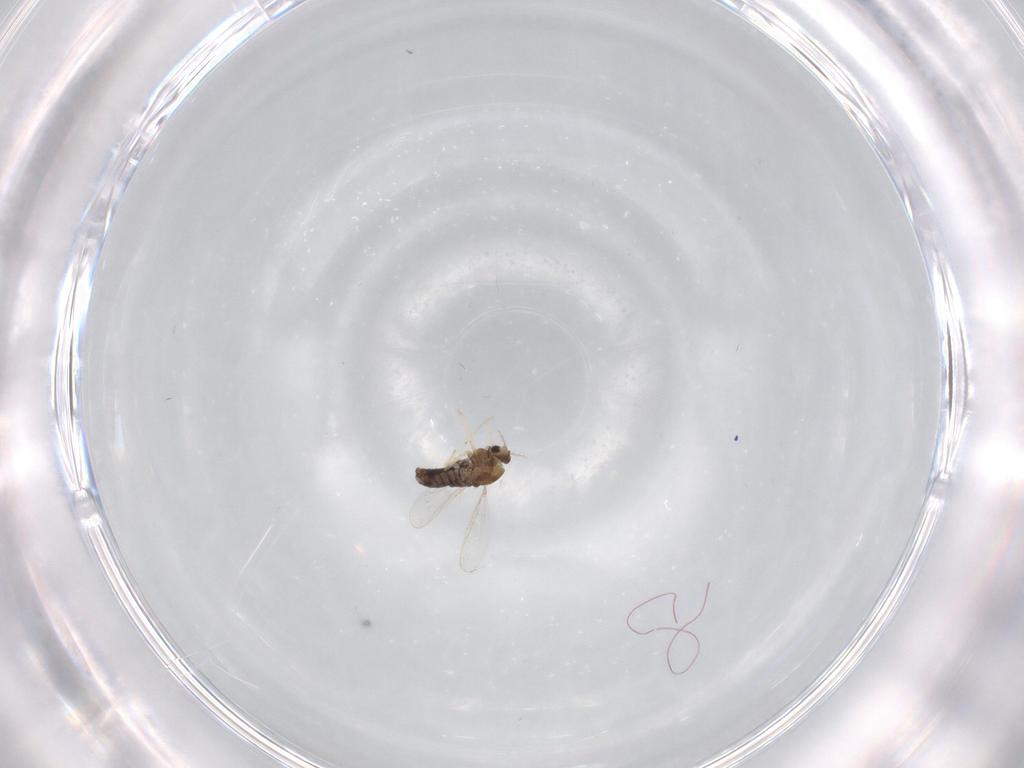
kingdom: Animalia
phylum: Arthropoda
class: Insecta
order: Diptera
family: Chironomidae
